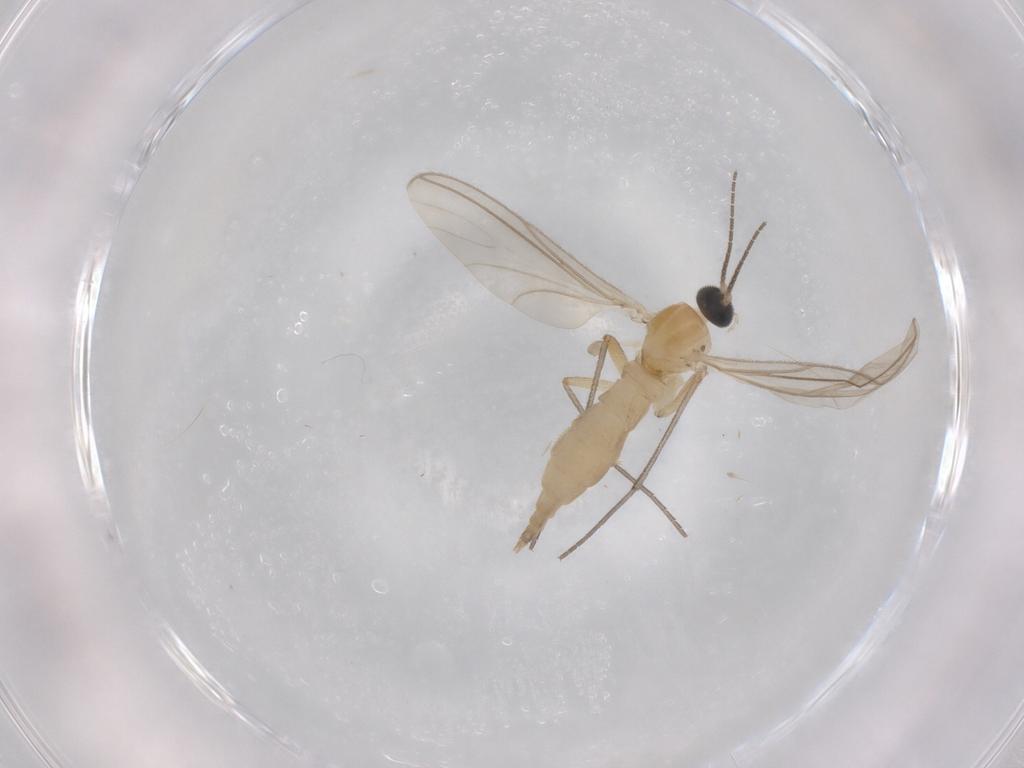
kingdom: Animalia
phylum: Arthropoda
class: Insecta
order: Diptera
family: Sciaridae
